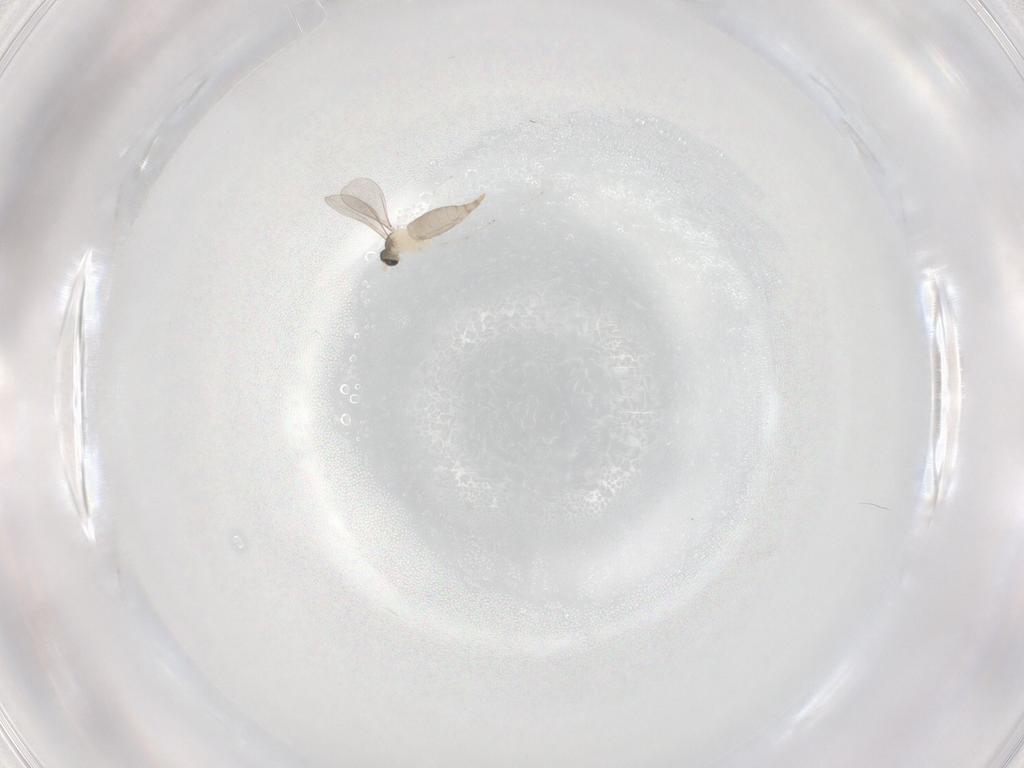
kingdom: Animalia
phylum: Arthropoda
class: Insecta
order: Diptera
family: Cecidomyiidae
